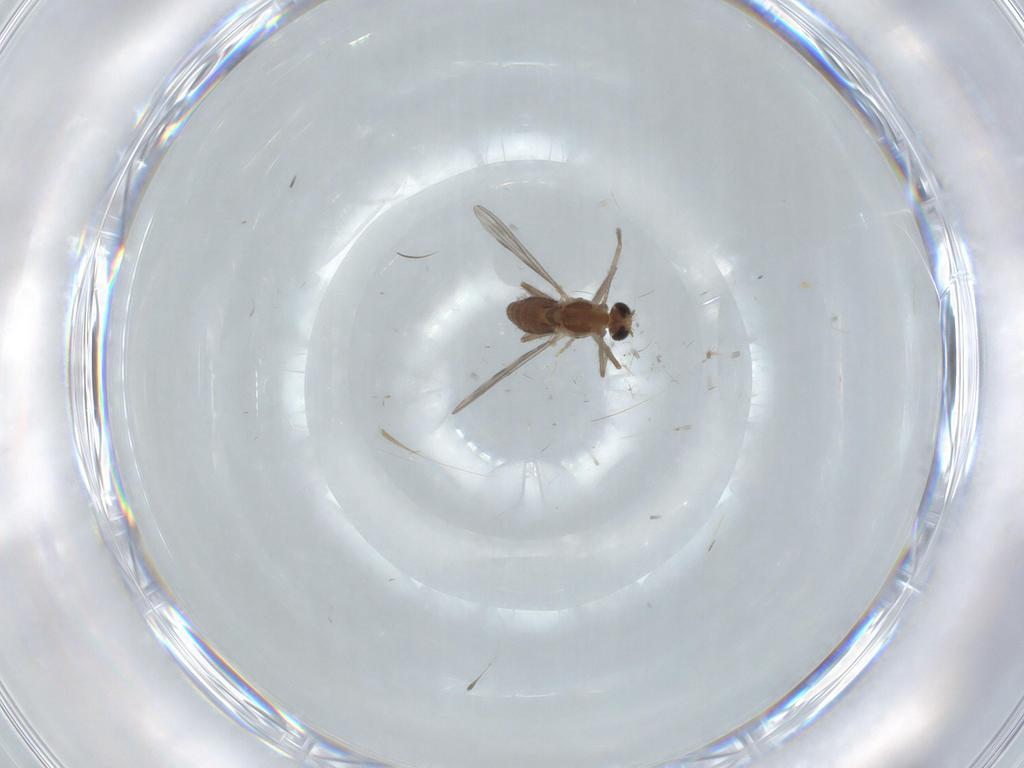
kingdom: Animalia
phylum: Arthropoda
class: Insecta
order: Diptera
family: Chironomidae
